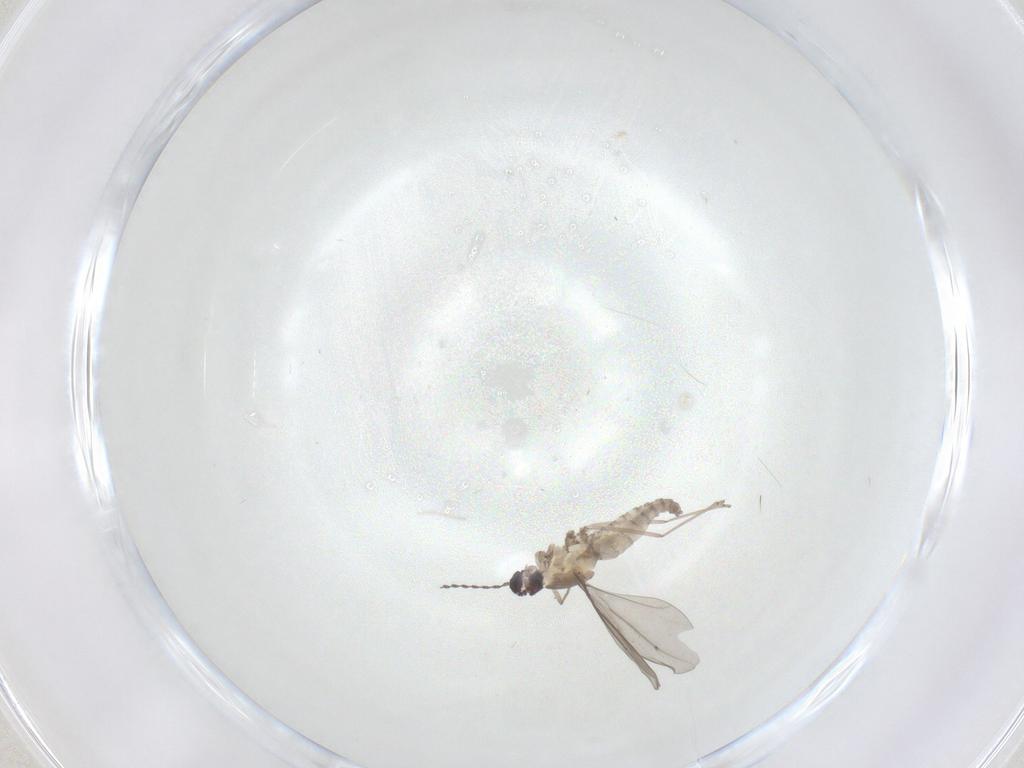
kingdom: Animalia
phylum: Arthropoda
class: Insecta
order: Diptera
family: Cecidomyiidae
